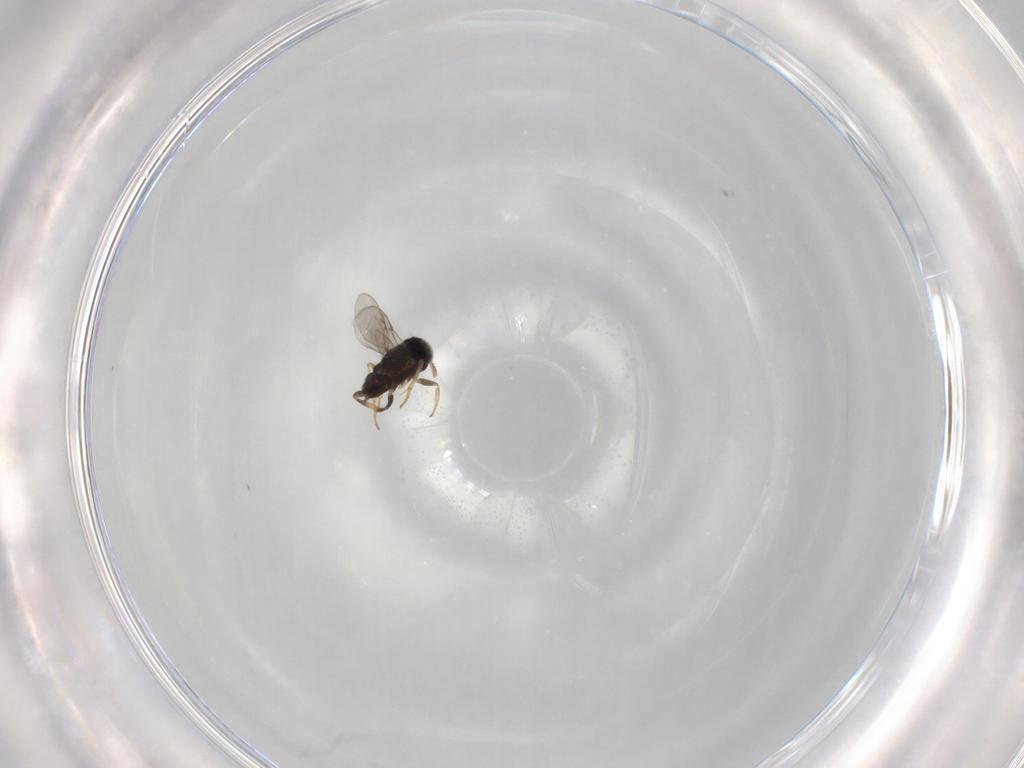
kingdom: Animalia
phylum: Arthropoda
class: Insecta
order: Hymenoptera
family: Encyrtidae
